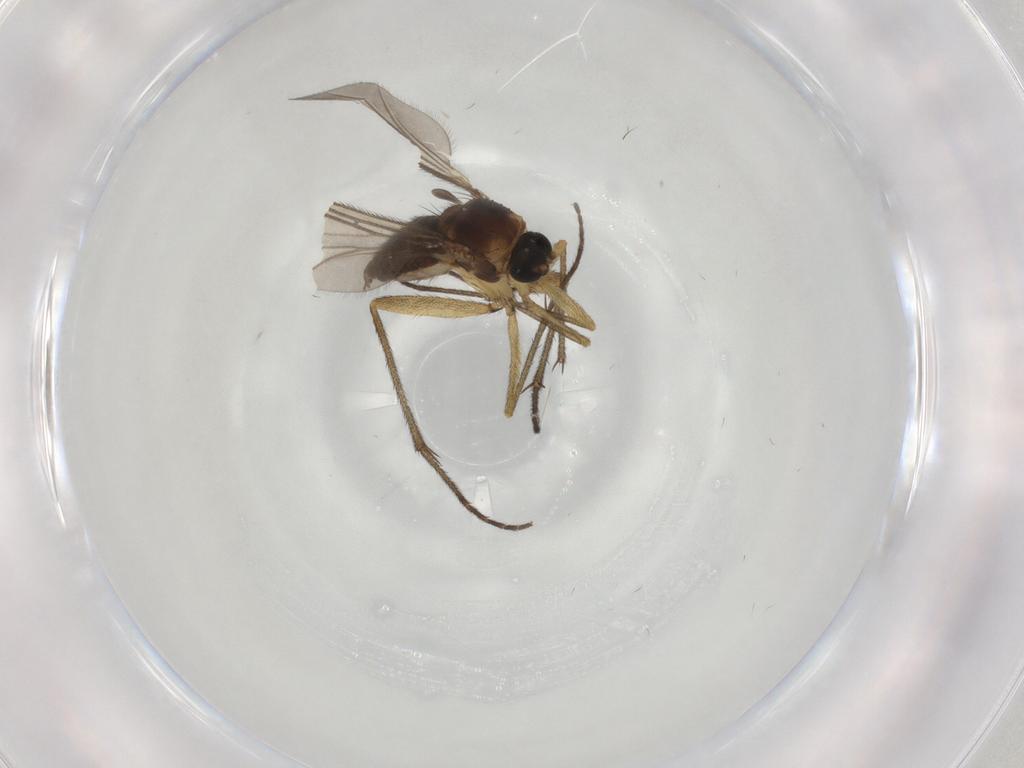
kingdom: Animalia
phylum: Arthropoda
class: Insecta
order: Diptera
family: Sciaridae
